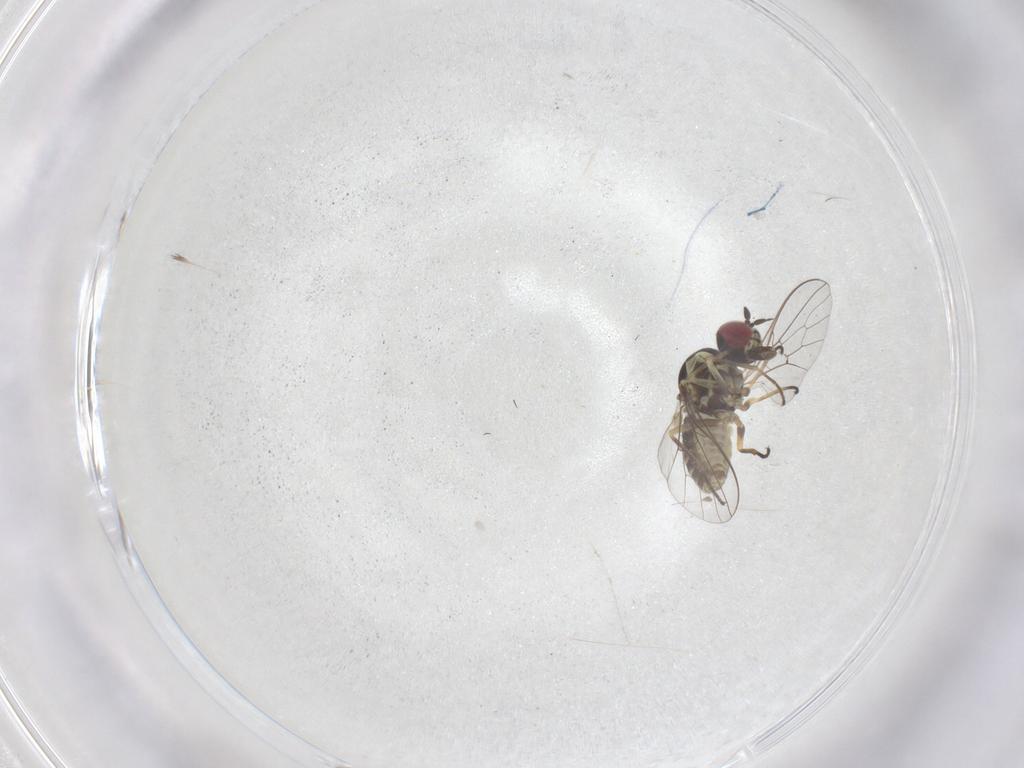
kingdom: Animalia
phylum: Arthropoda
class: Insecta
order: Diptera
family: Bombyliidae
